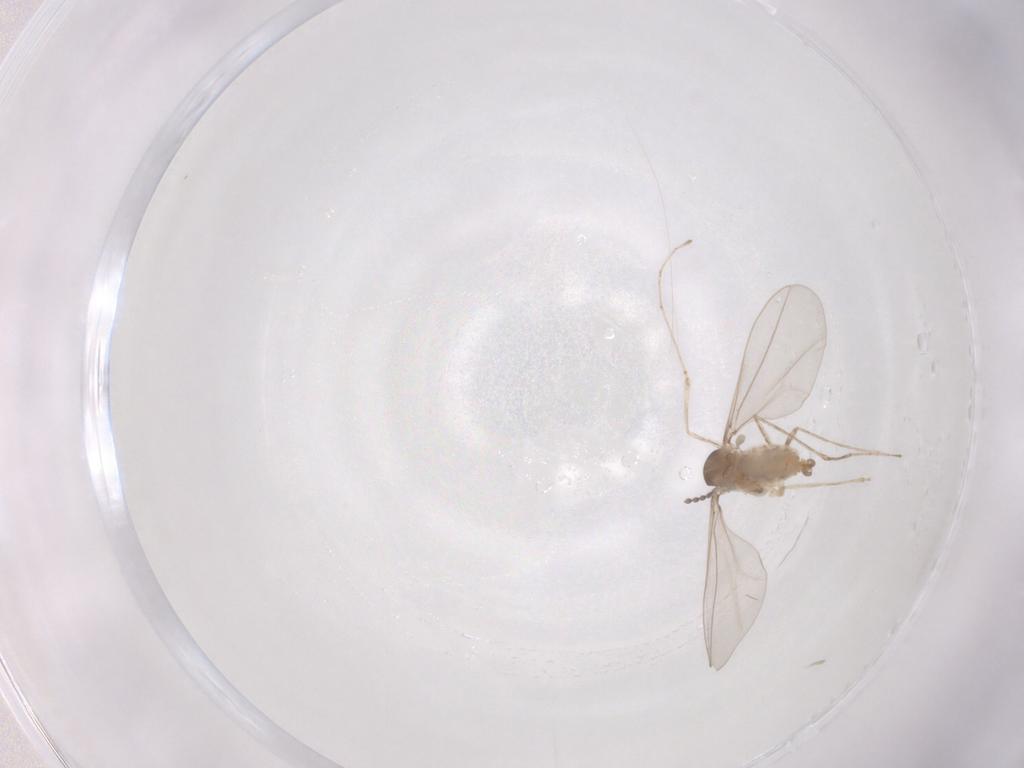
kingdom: Animalia
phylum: Arthropoda
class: Insecta
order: Diptera
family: Cecidomyiidae
